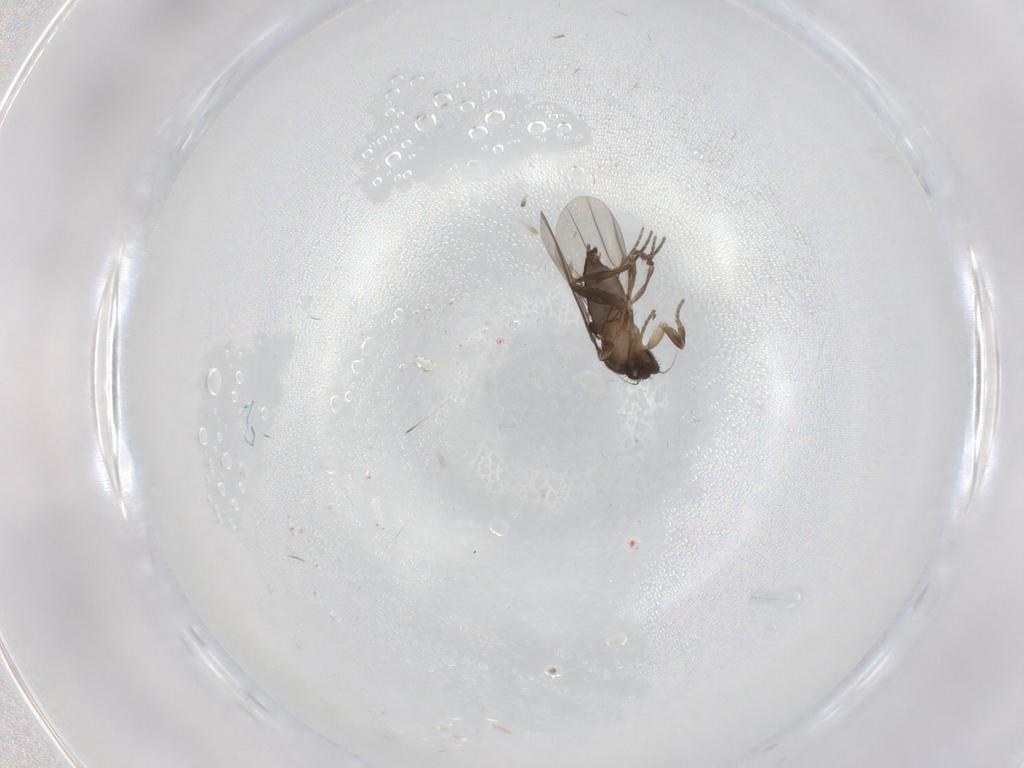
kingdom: Animalia
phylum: Arthropoda
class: Insecta
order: Diptera
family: Phoridae
